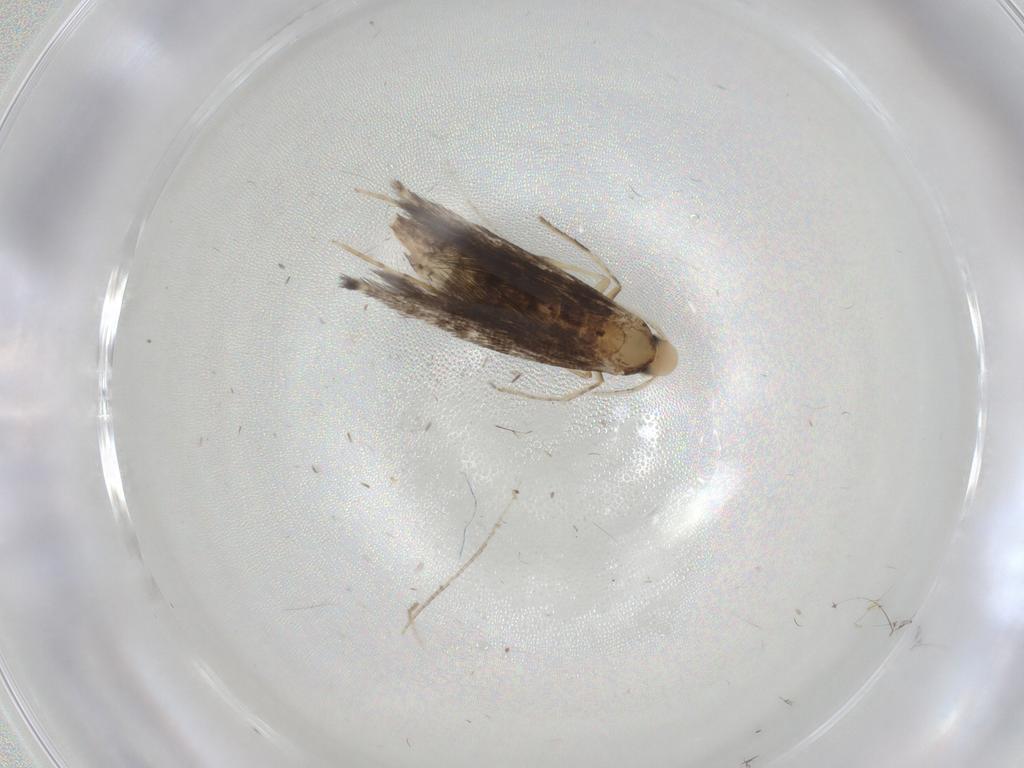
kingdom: Animalia
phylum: Arthropoda
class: Insecta
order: Lepidoptera
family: Gracillariidae
